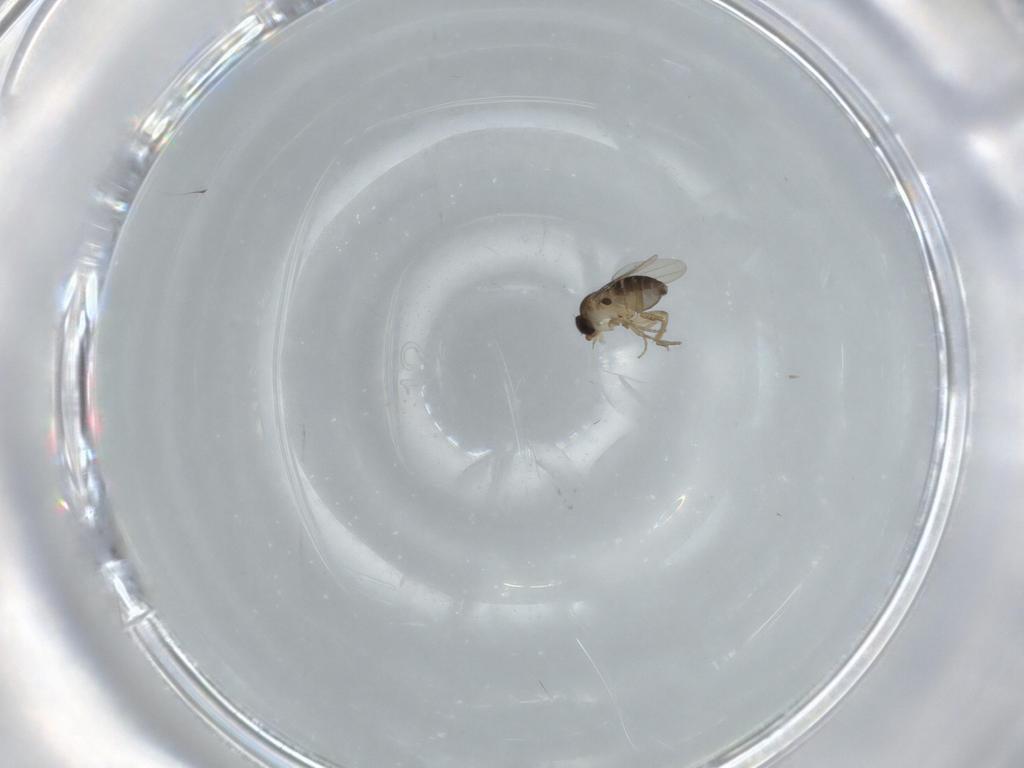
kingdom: Animalia
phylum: Arthropoda
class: Insecta
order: Diptera
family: Phoridae
